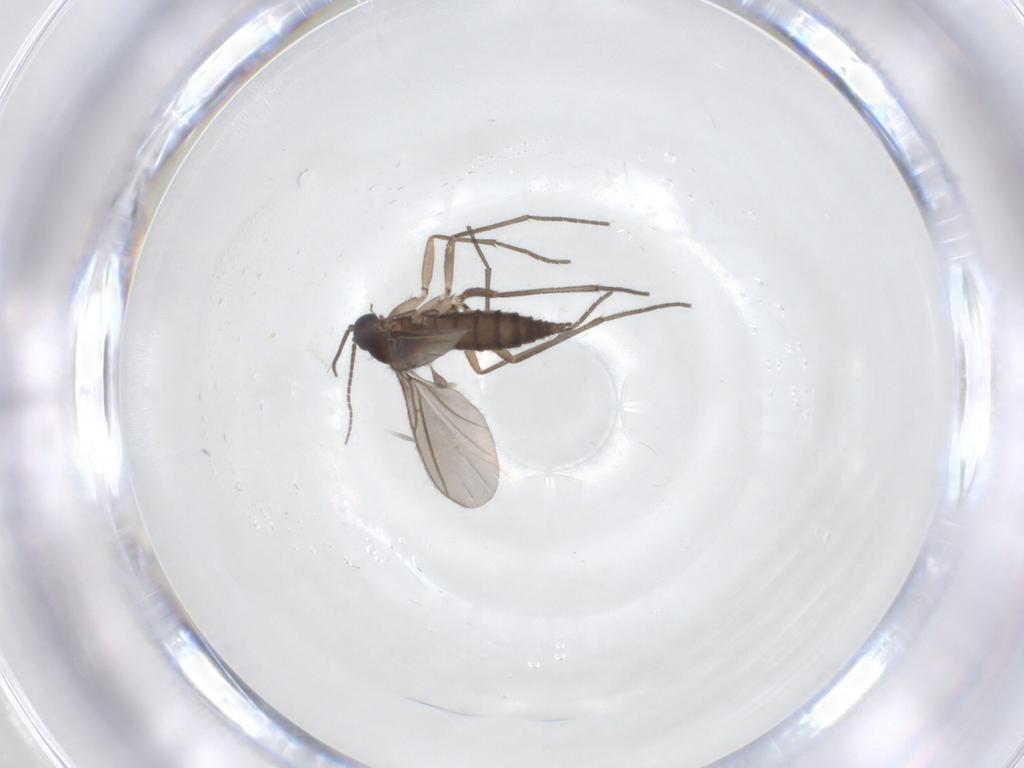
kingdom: Animalia
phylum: Arthropoda
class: Insecta
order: Diptera
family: Sciaridae
